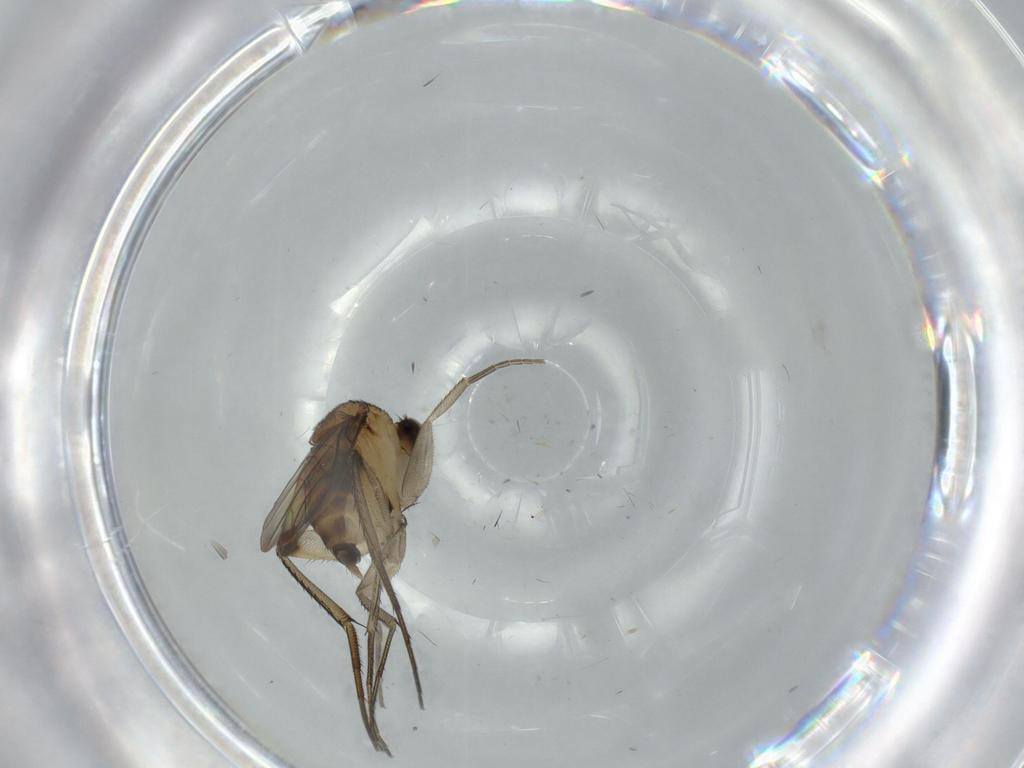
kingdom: Animalia
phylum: Arthropoda
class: Insecta
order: Diptera
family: Phoridae
